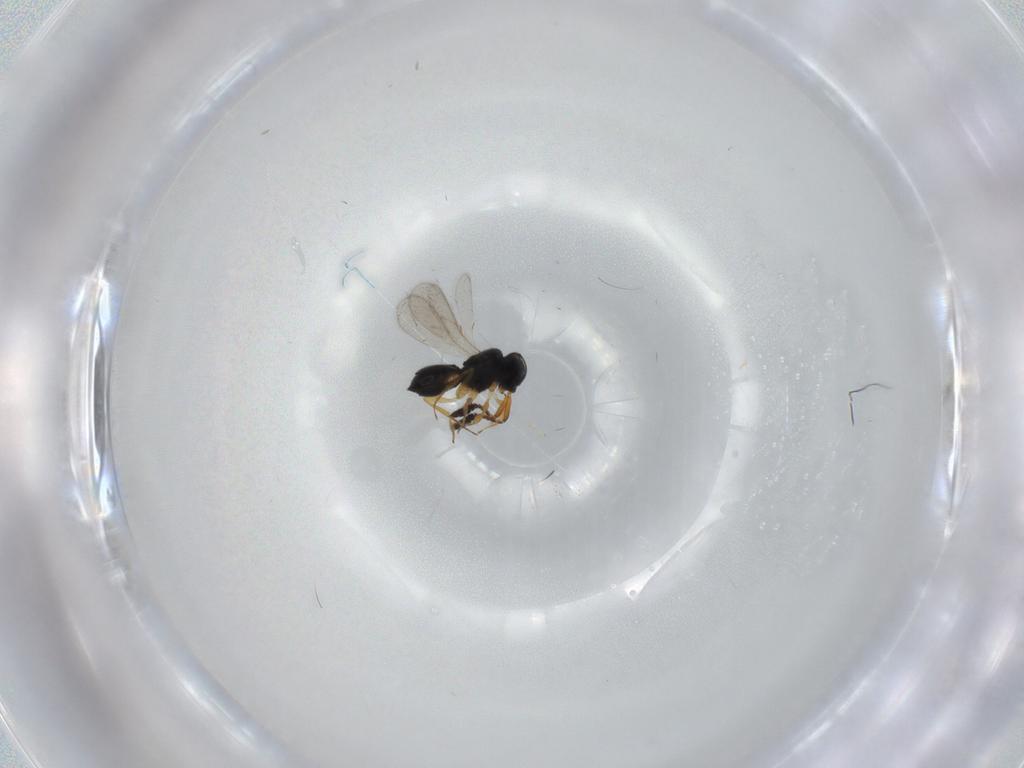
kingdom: Animalia
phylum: Arthropoda
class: Insecta
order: Hymenoptera
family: Scelionidae
